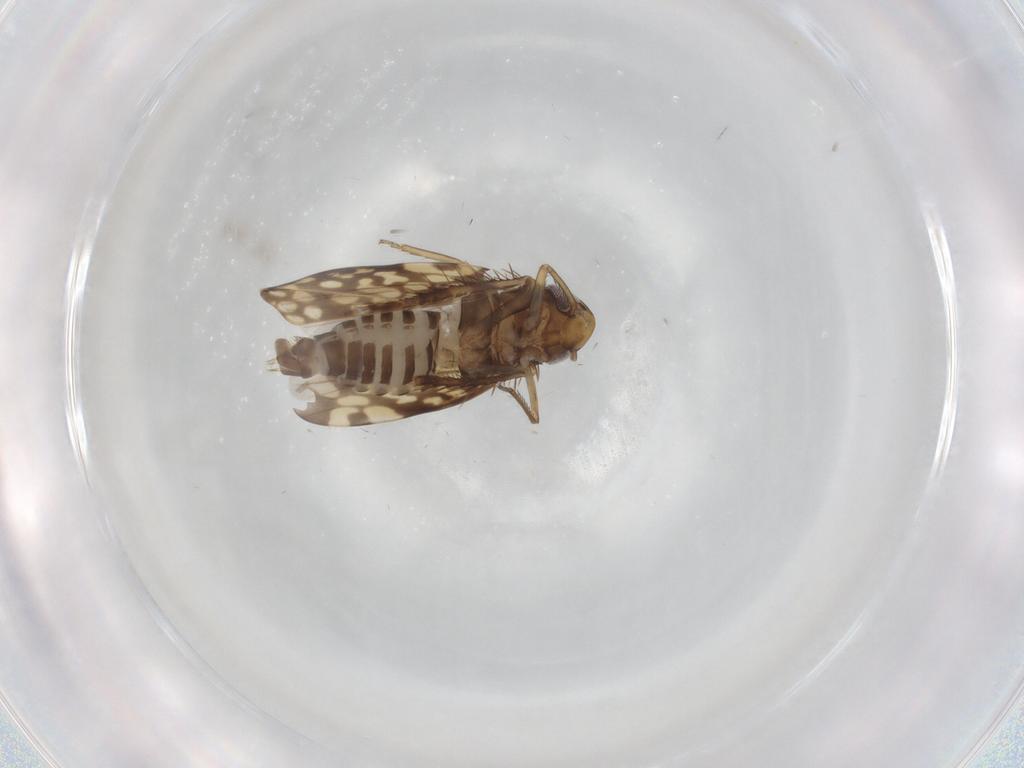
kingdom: Animalia
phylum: Arthropoda
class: Insecta
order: Hemiptera
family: Cicadellidae
